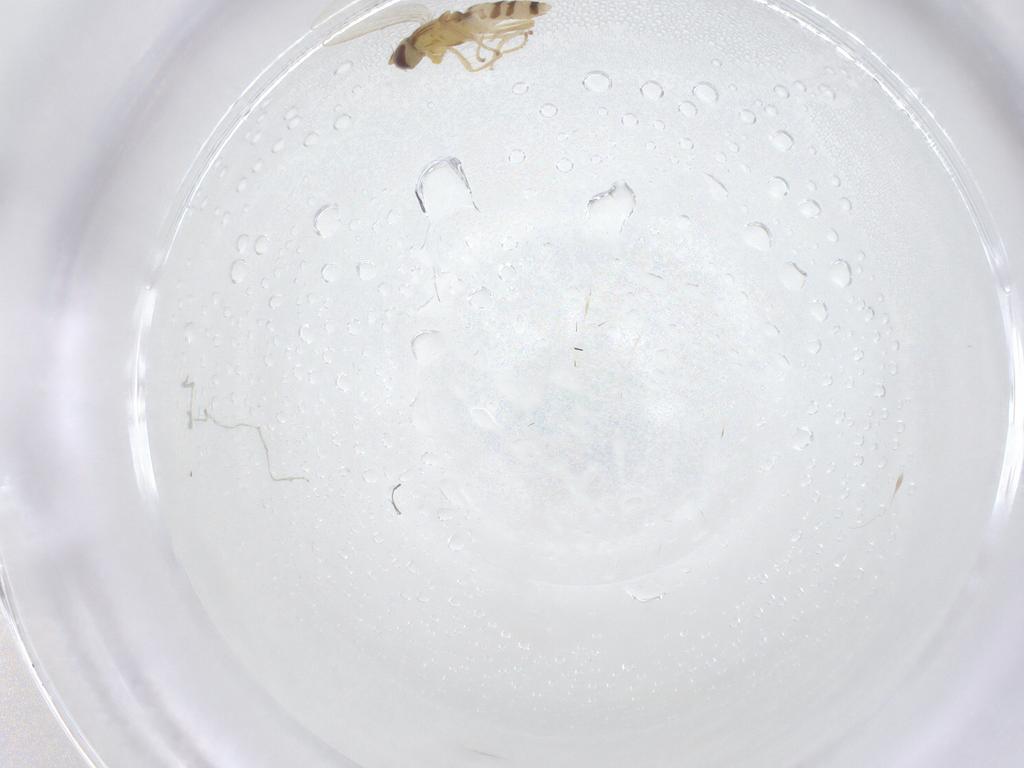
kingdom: Animalia
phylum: Arthropoda
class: Insecta
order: Diptera
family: Periscelididae
